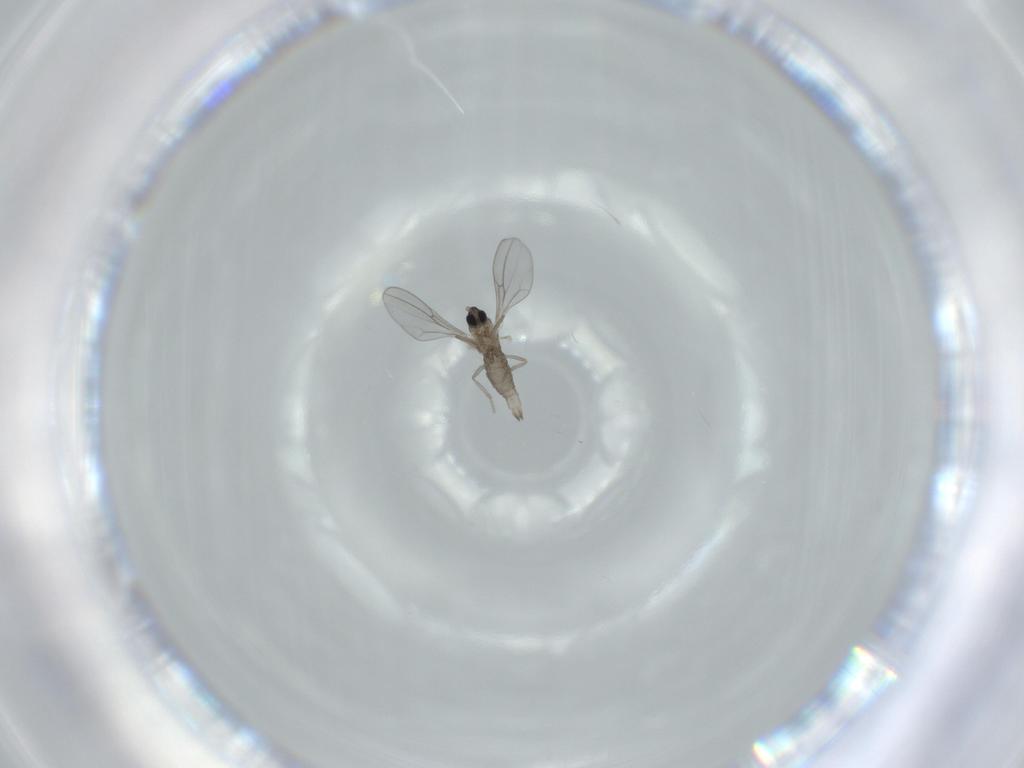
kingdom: Animalia
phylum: Arthropoda
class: Insecta
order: Diptera
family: Cecidomyiidae
